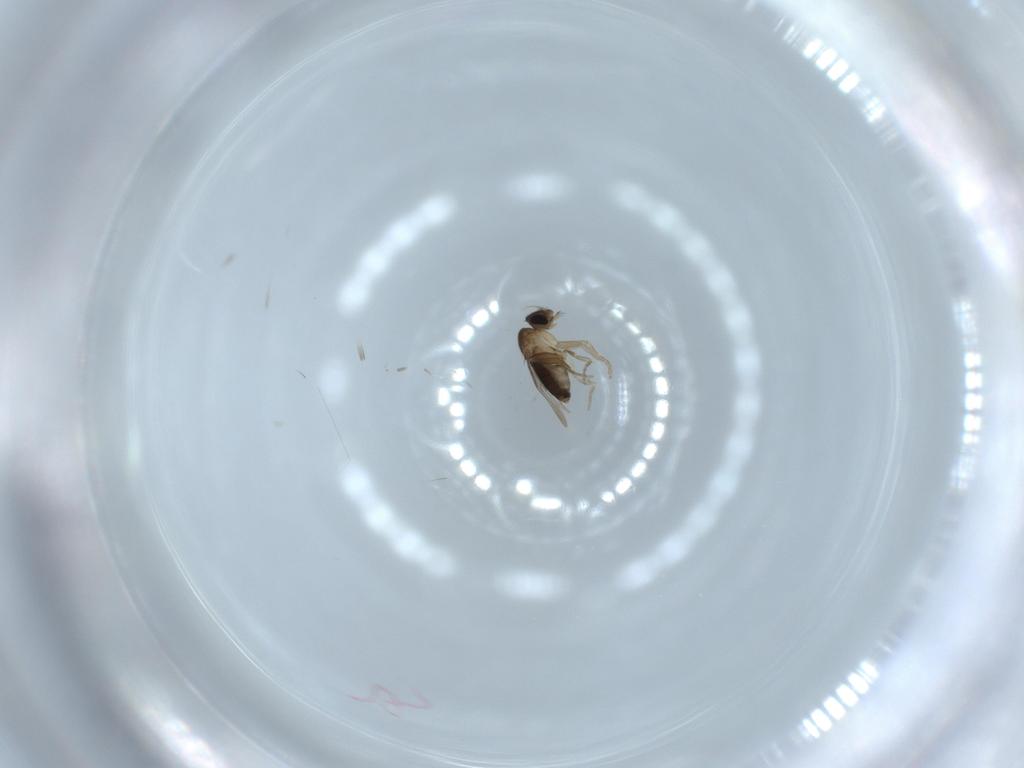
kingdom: Animalia
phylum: Arthropoda
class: Insecta
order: Diptera
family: Phoridae
